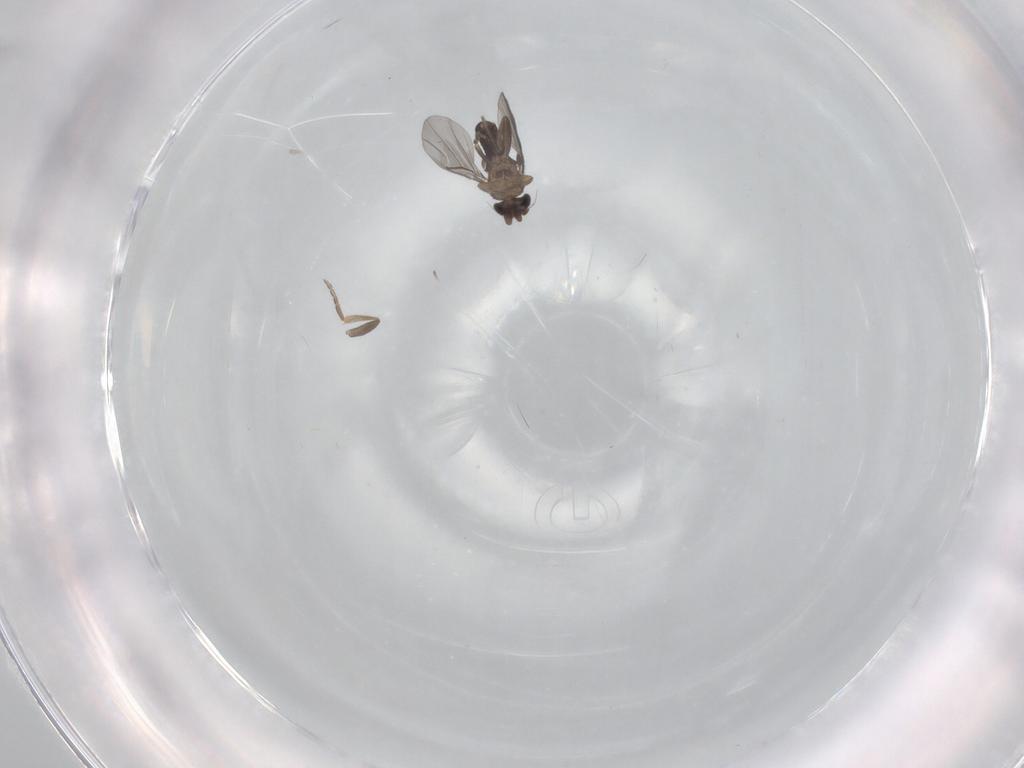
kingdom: Animalia
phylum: Arthropoda
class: Insecta
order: Diptera
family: Phoridae
